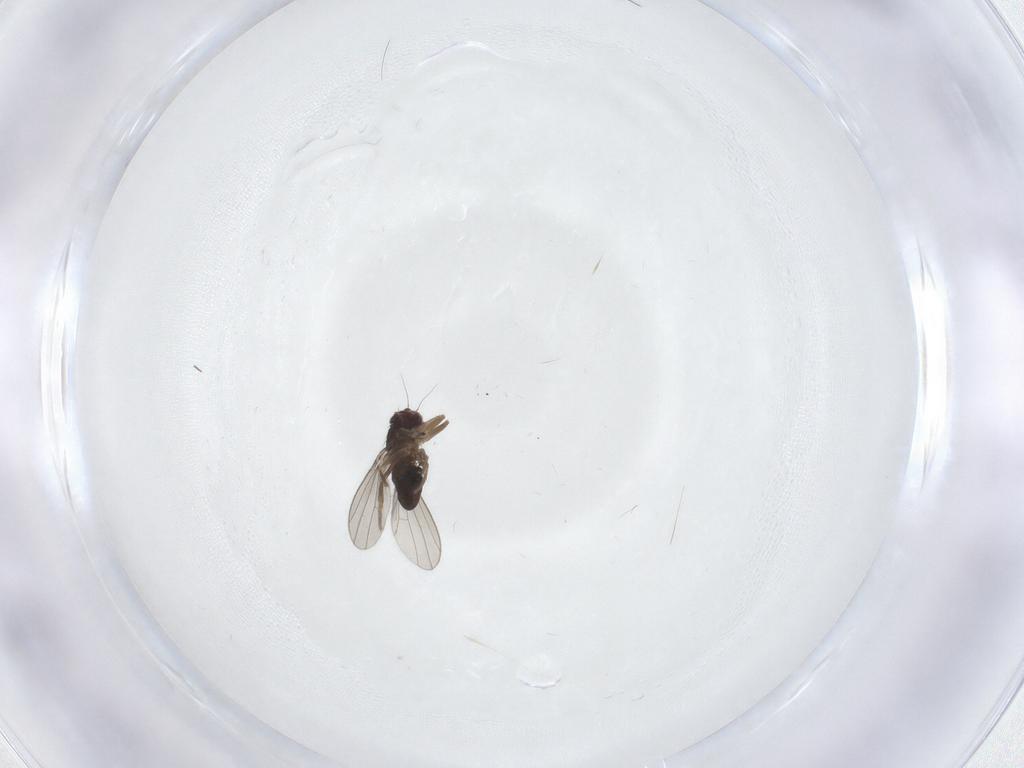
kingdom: Animalia
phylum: Arthropoda
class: Insecta
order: Diptera
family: Dolichopodidae
